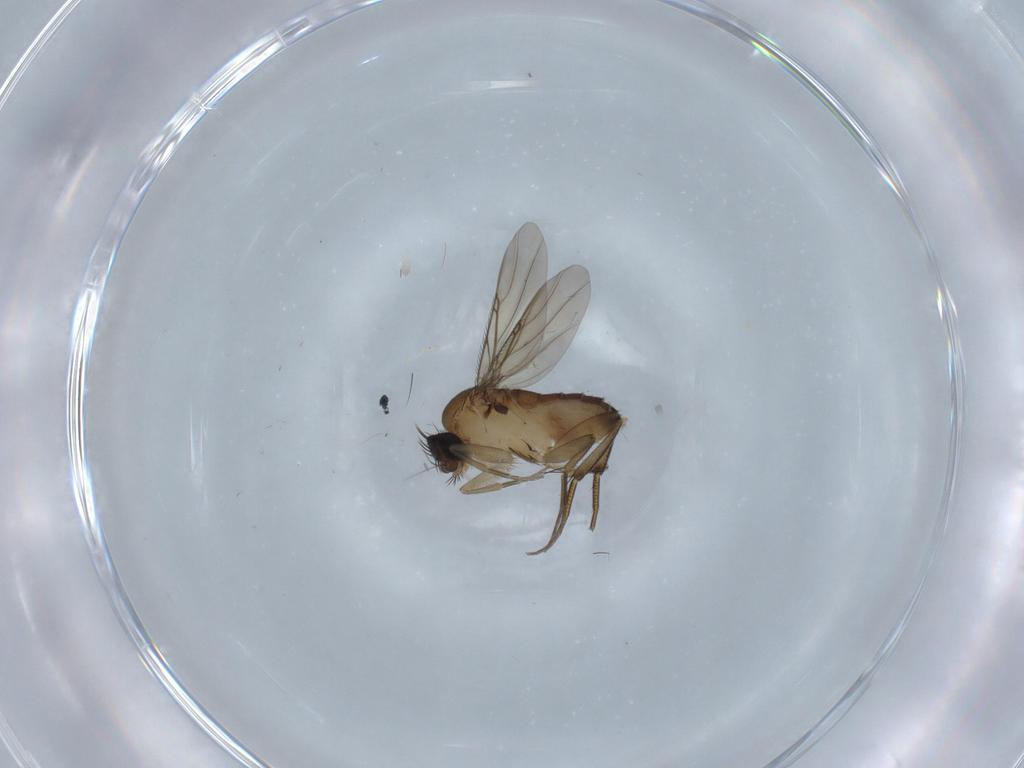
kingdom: Animalia
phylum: Arthropoda
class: Insecta
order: Diptera
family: Phoridae
